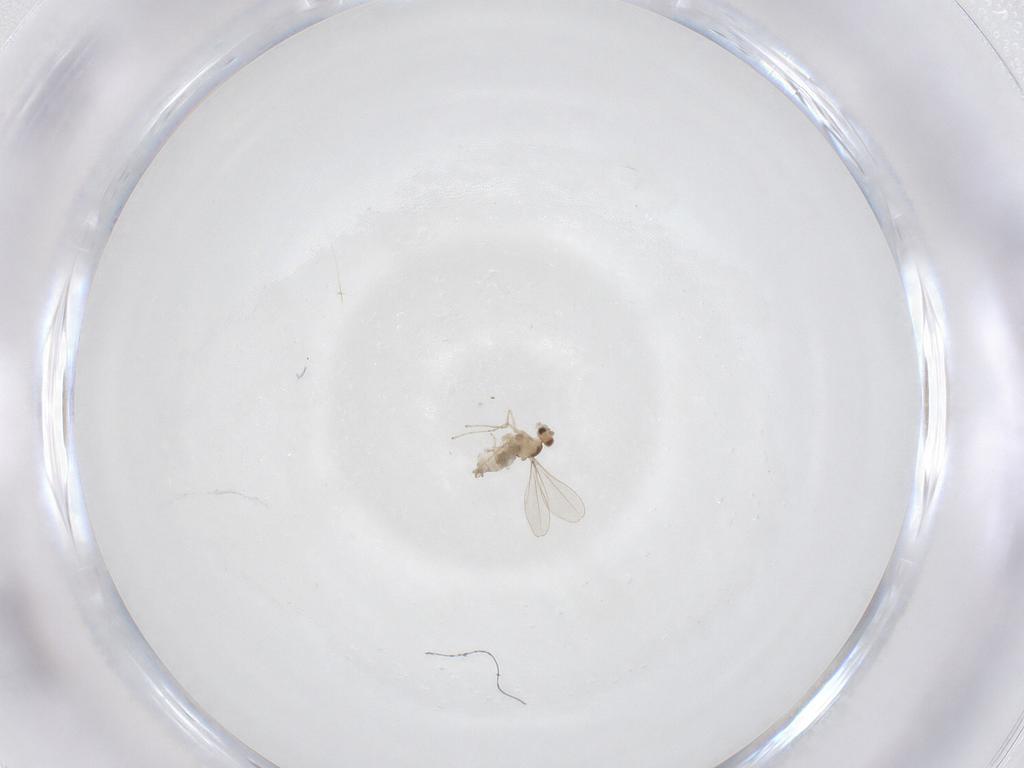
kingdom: Animalia
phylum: Arthropoda
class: Insecta
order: Diptera
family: Cecidomyiidae
